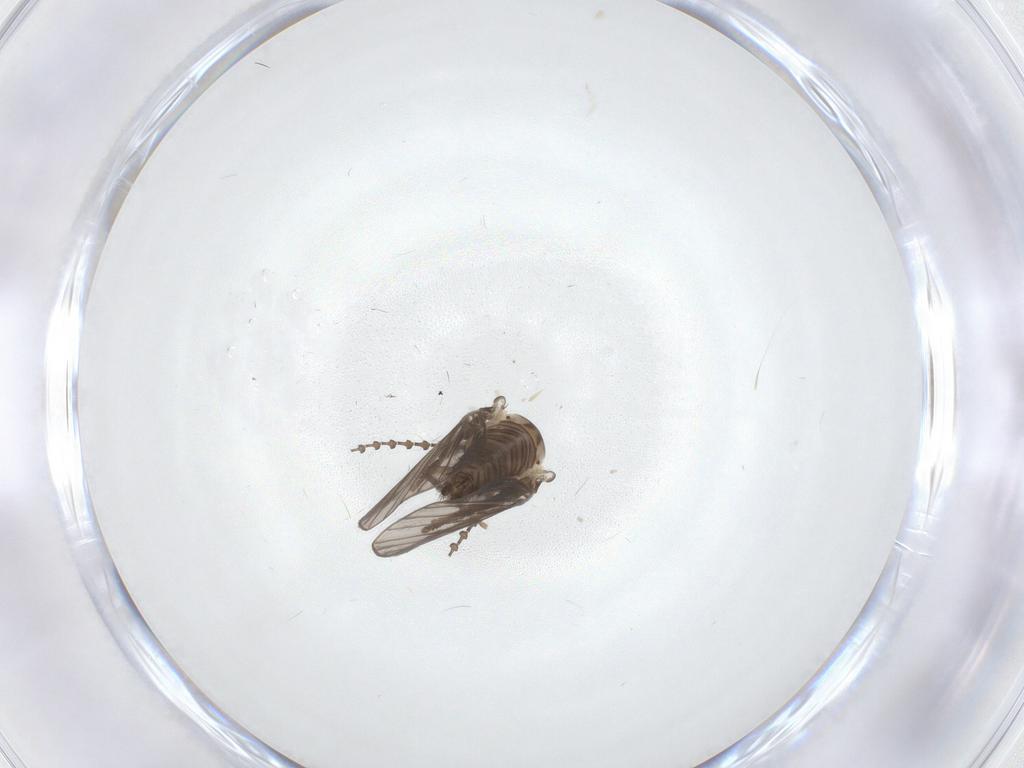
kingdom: Animalia
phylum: Arthropoda
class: Insecta
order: Diptera
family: Psychodidae
